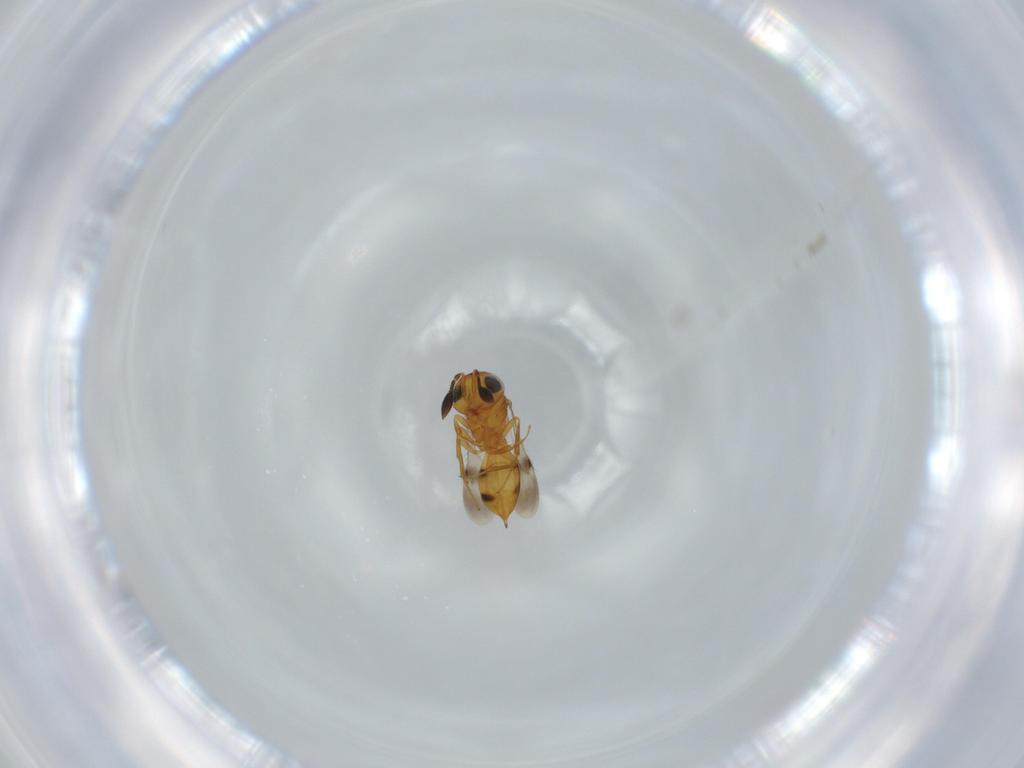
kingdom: Animalia
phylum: Arthropoda
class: Insecta
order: Hymenoptera
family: Scelionidae
